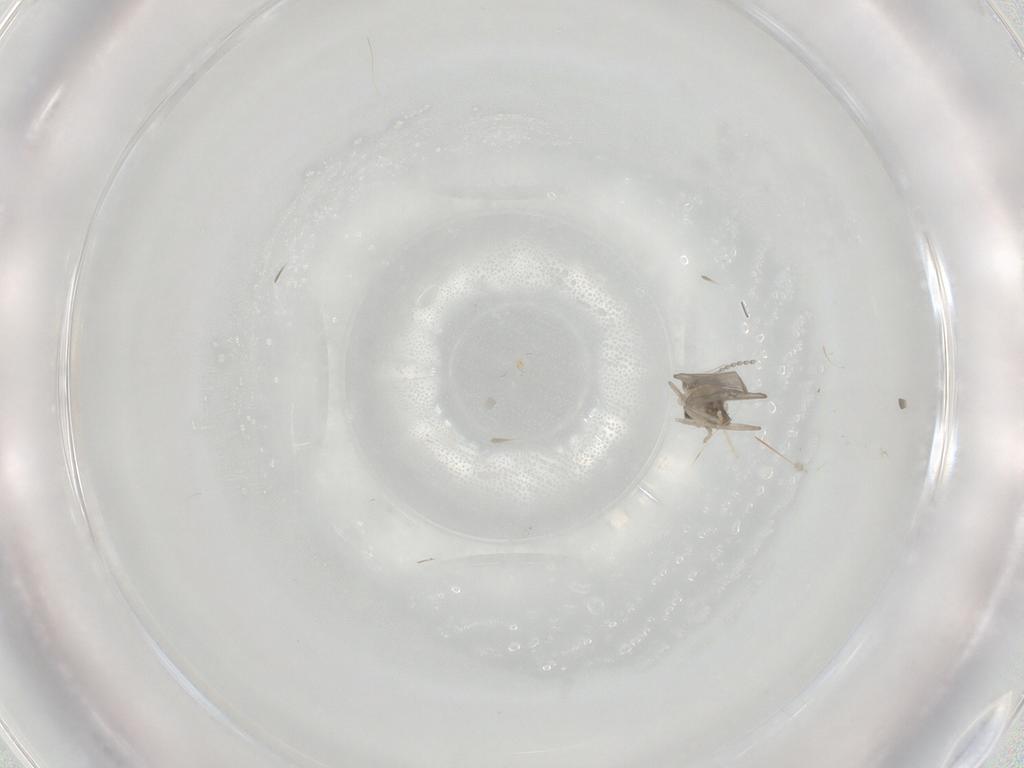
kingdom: Animalia
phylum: Arthropoda
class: Insecta
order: Diptera
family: Cecidomyiidae
